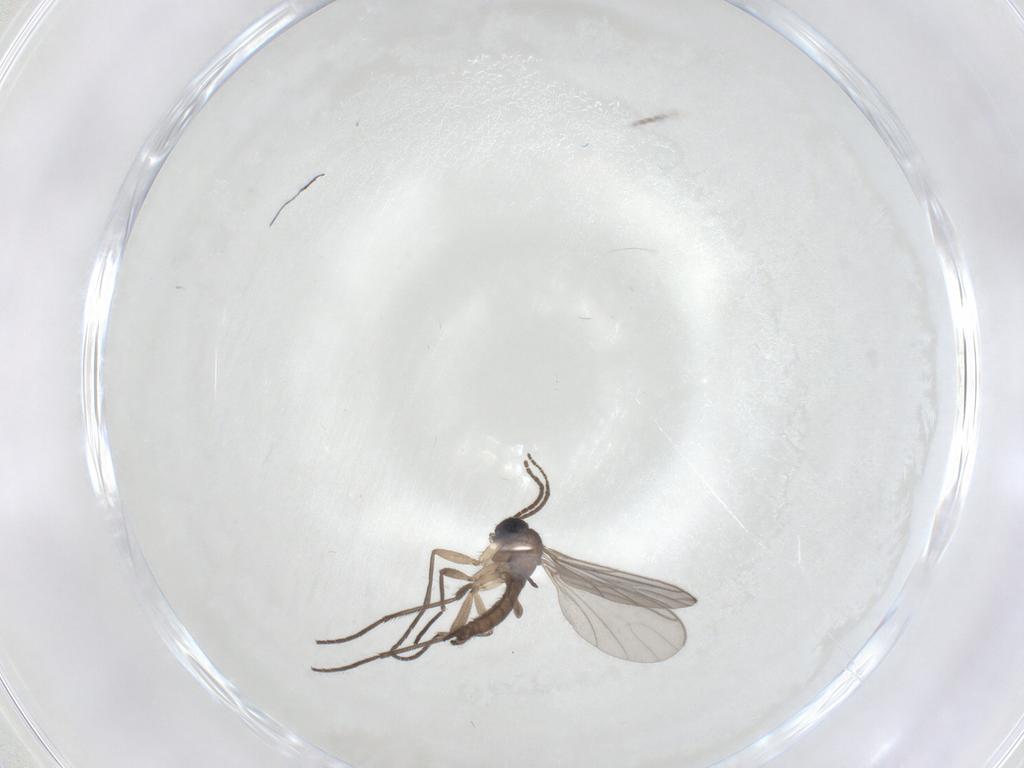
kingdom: Animalia
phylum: Arthropoda
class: Insecta
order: Diptera
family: Sciaridae
